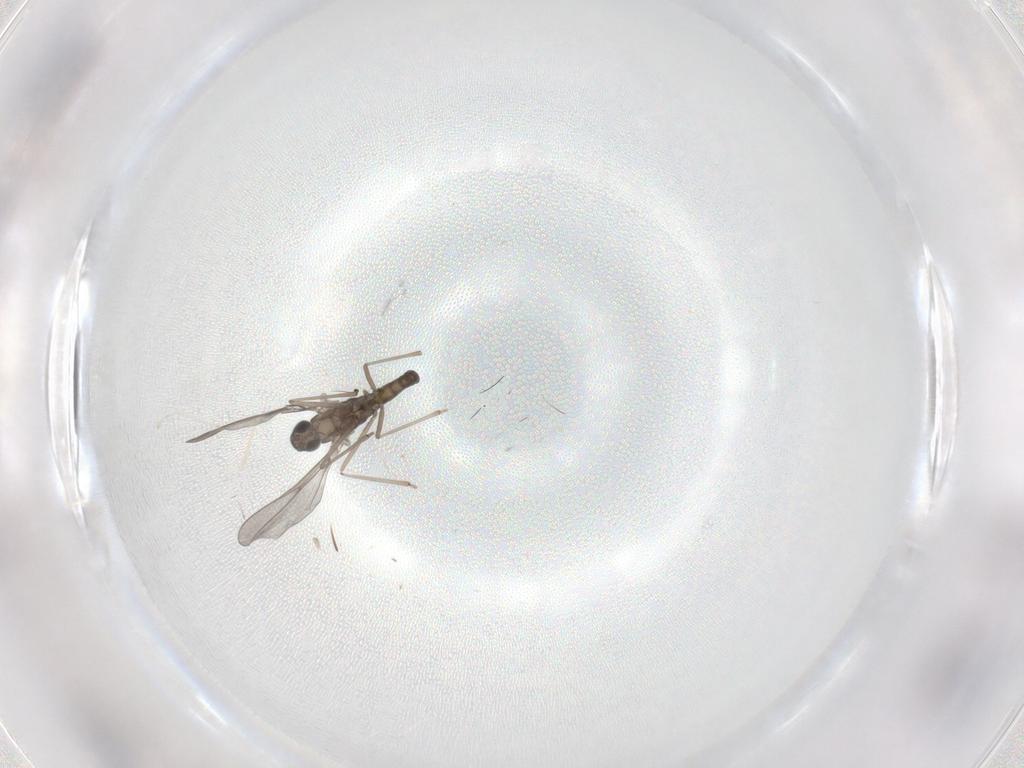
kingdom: Animalia
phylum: Arthropoda
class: Insecta
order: Diptera
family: Cecidomyiidae
